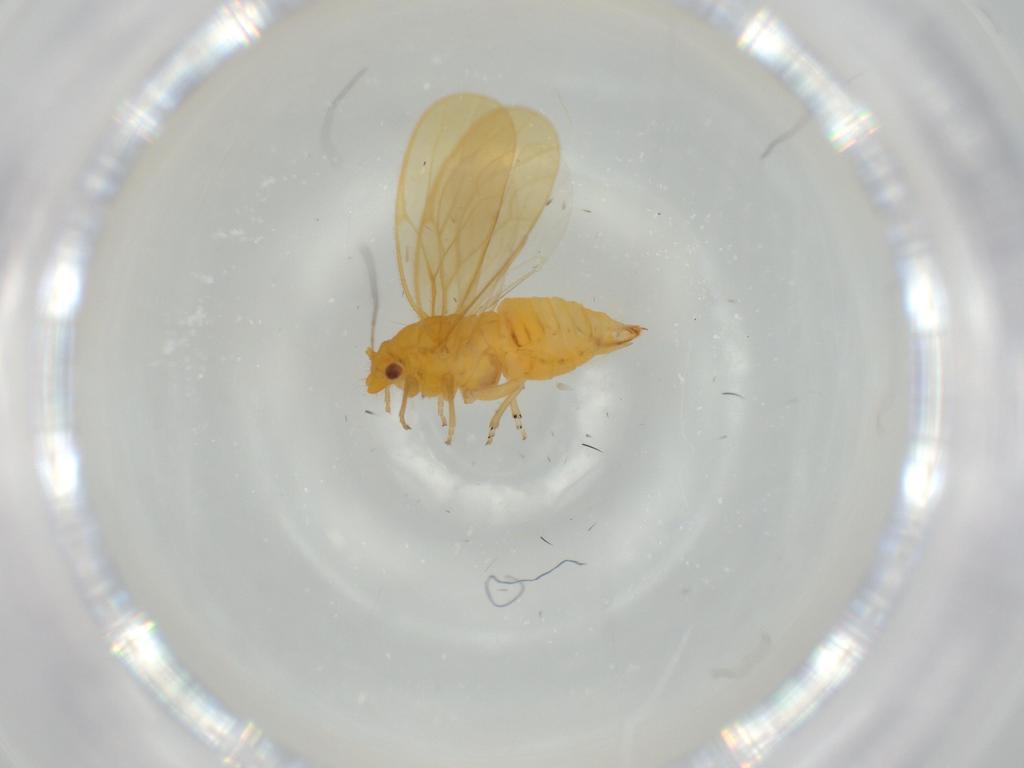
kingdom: Animalia
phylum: Arthropoda
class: Insecta
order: Hemiptera
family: Psyllidae
